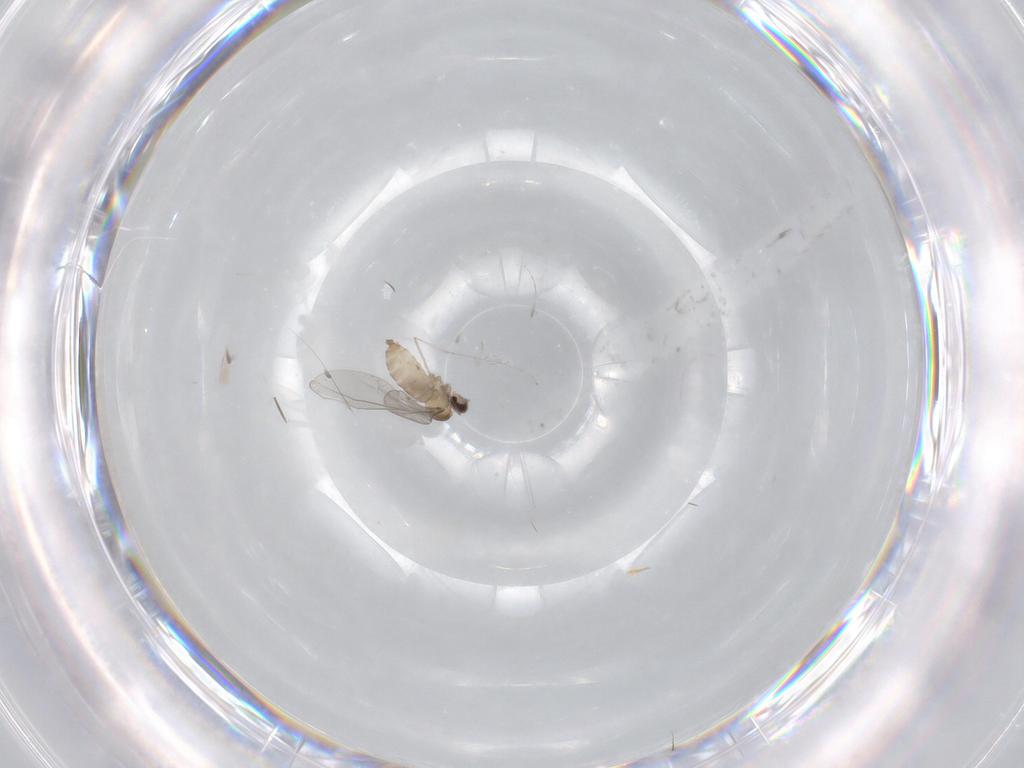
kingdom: Animalia
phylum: Arthropoda
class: Insecta
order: Diptera
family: Cecidomyiidae
